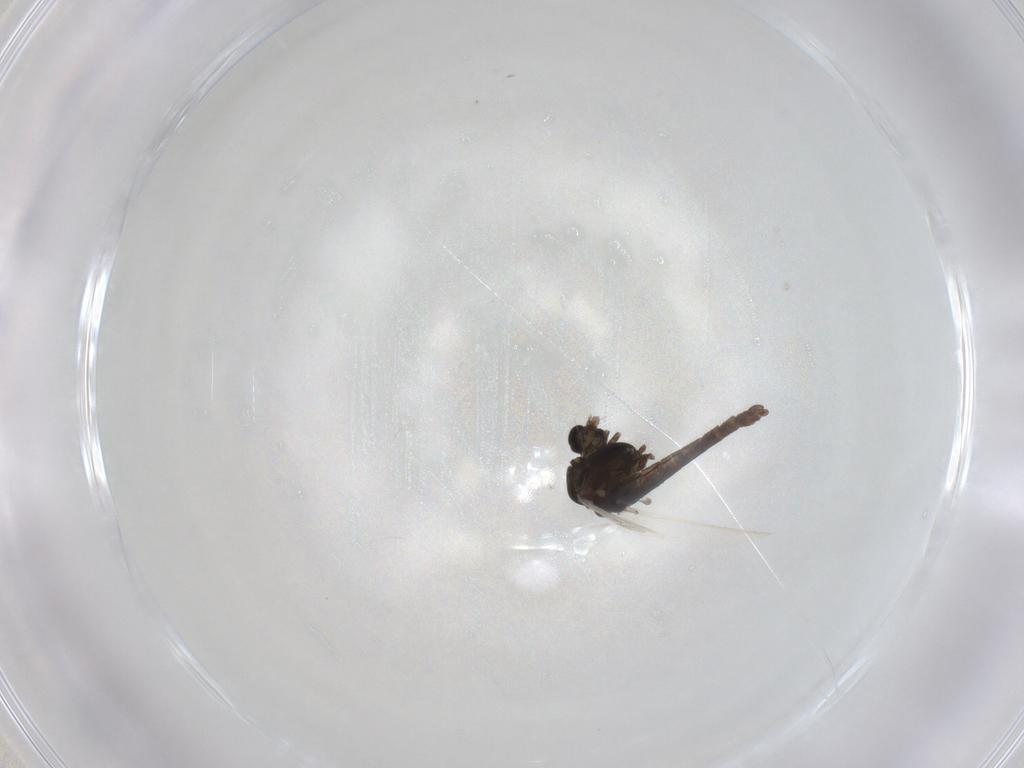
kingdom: Animalia
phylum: Arthropoda
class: Insecta
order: Diptera
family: Chironomidae
